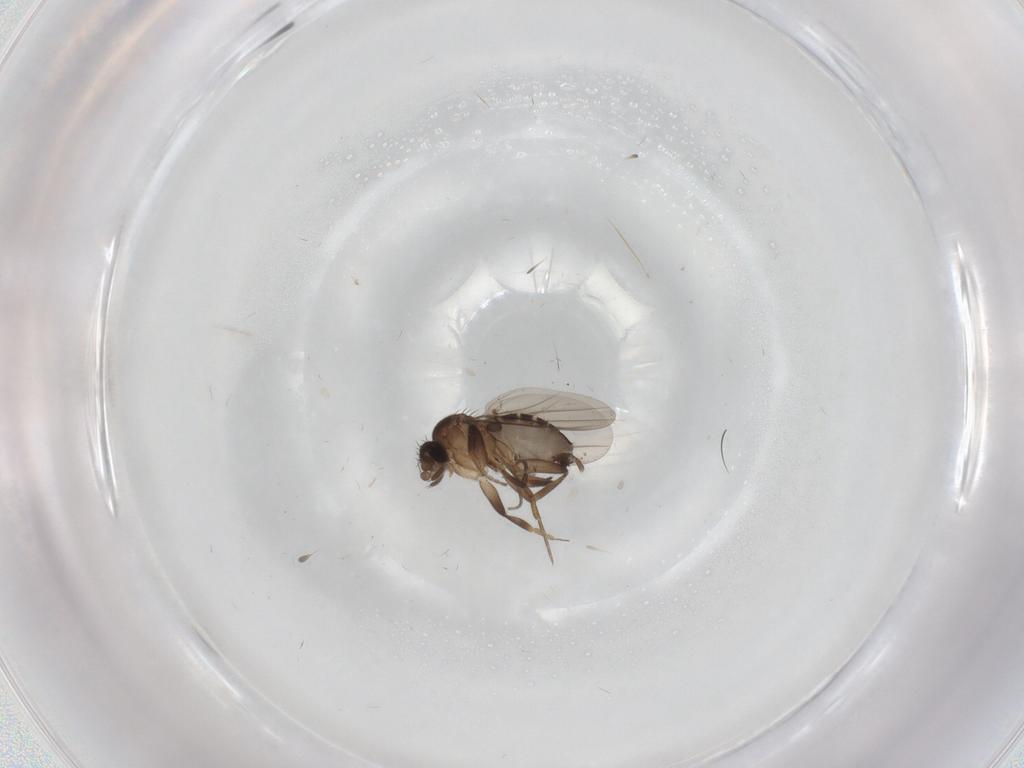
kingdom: Animalia
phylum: Arthropoda
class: Insecta
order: Diptera
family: Phoridae
